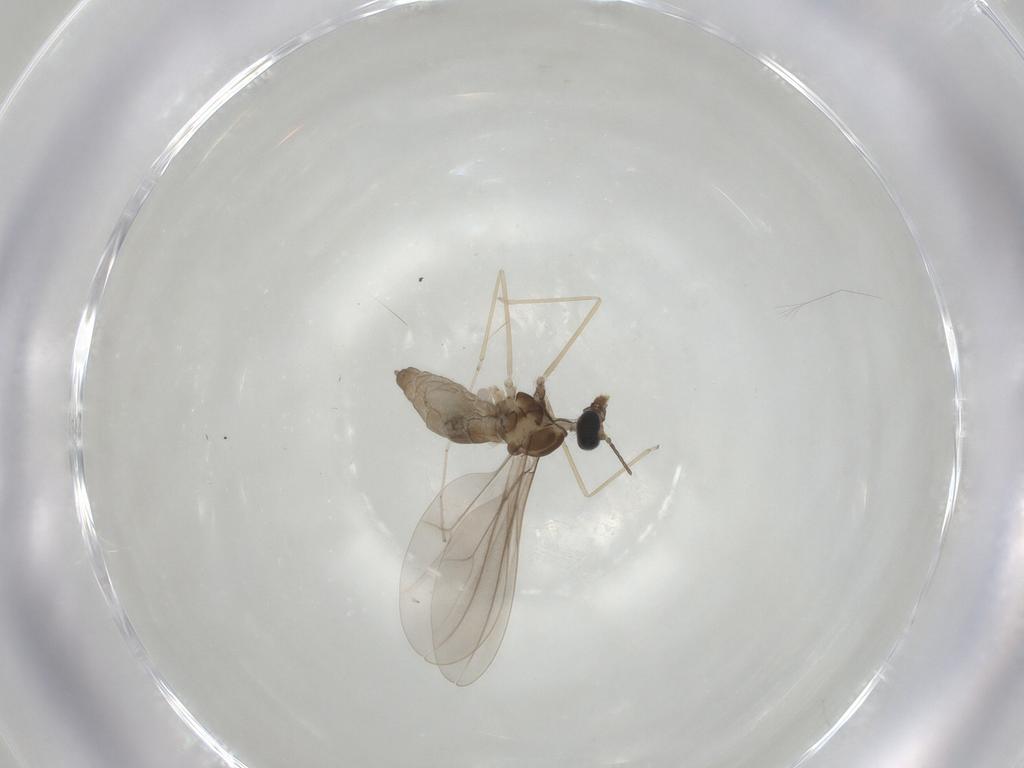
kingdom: Animalia
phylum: Arthropoda
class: Insecta
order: Diptera
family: Cecidomyiidae
